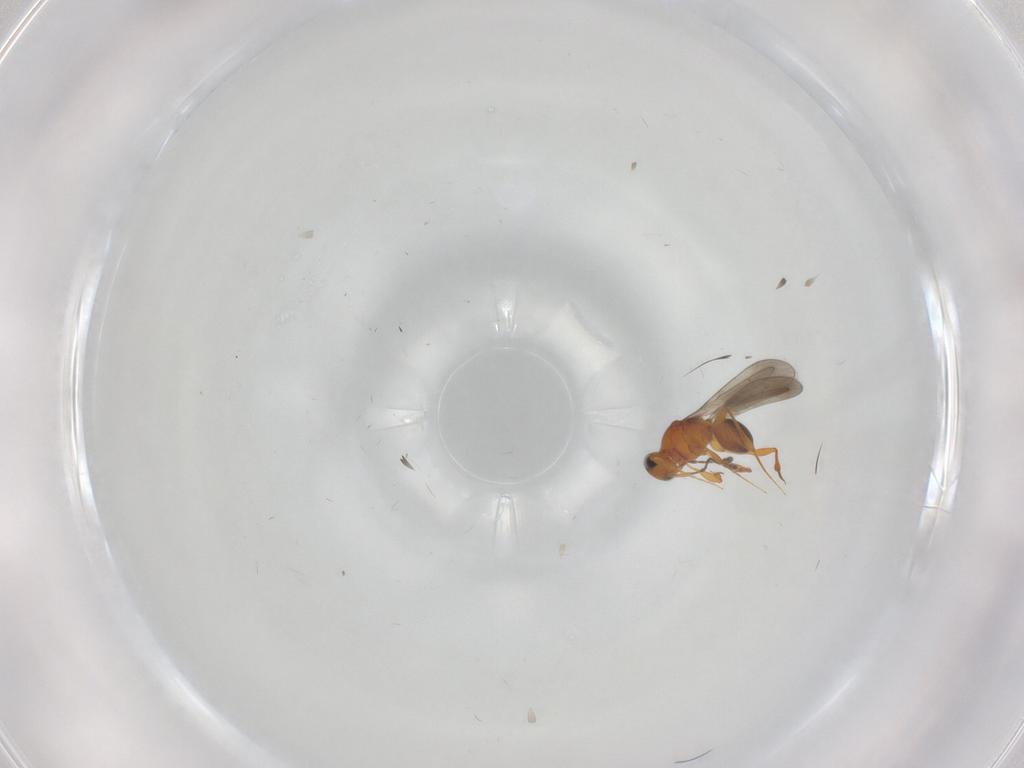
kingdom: Animalia
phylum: Arthropoda
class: Insecta
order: Hymenoptera
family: Platygastridae
